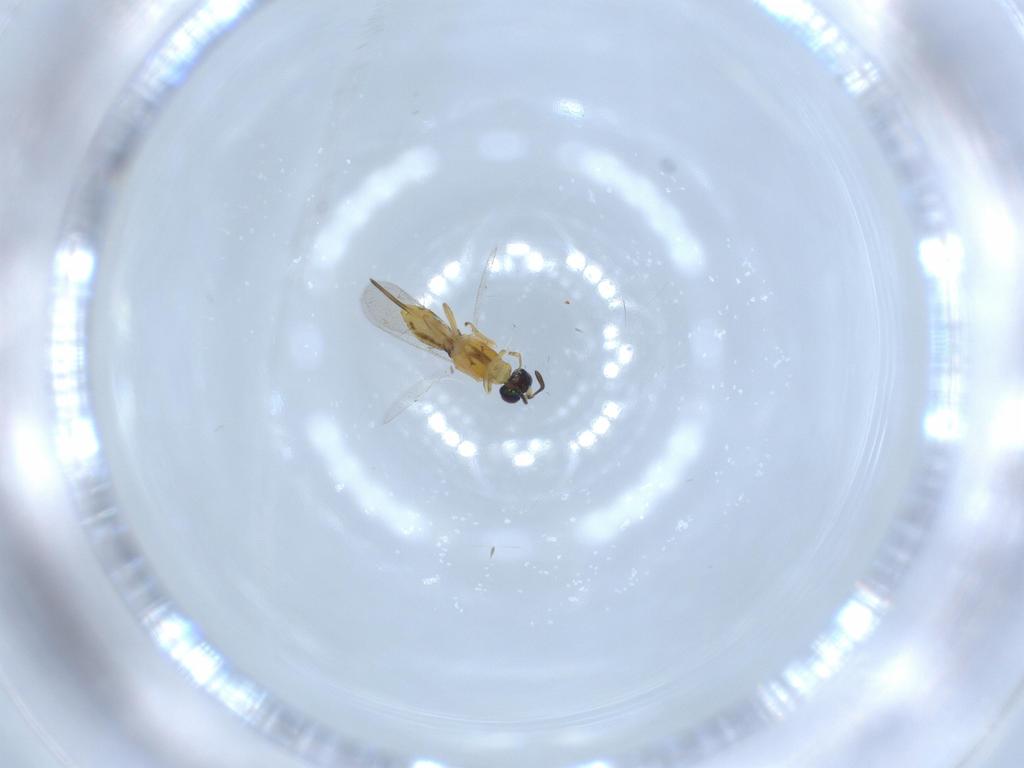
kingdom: Animalia
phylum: Arthropoda
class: Insecta
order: Hymenoptera
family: Eupelmidae
